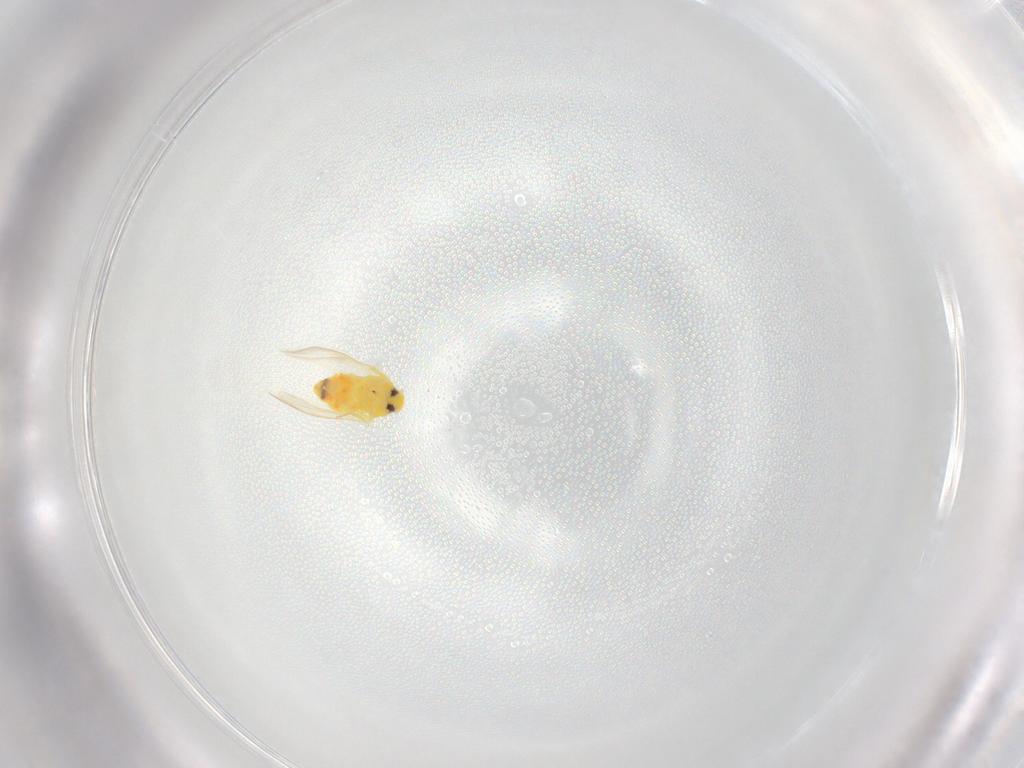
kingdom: Animalia
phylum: Arthropoda
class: Insecta
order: Hemiptera
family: Aleyrodidae
